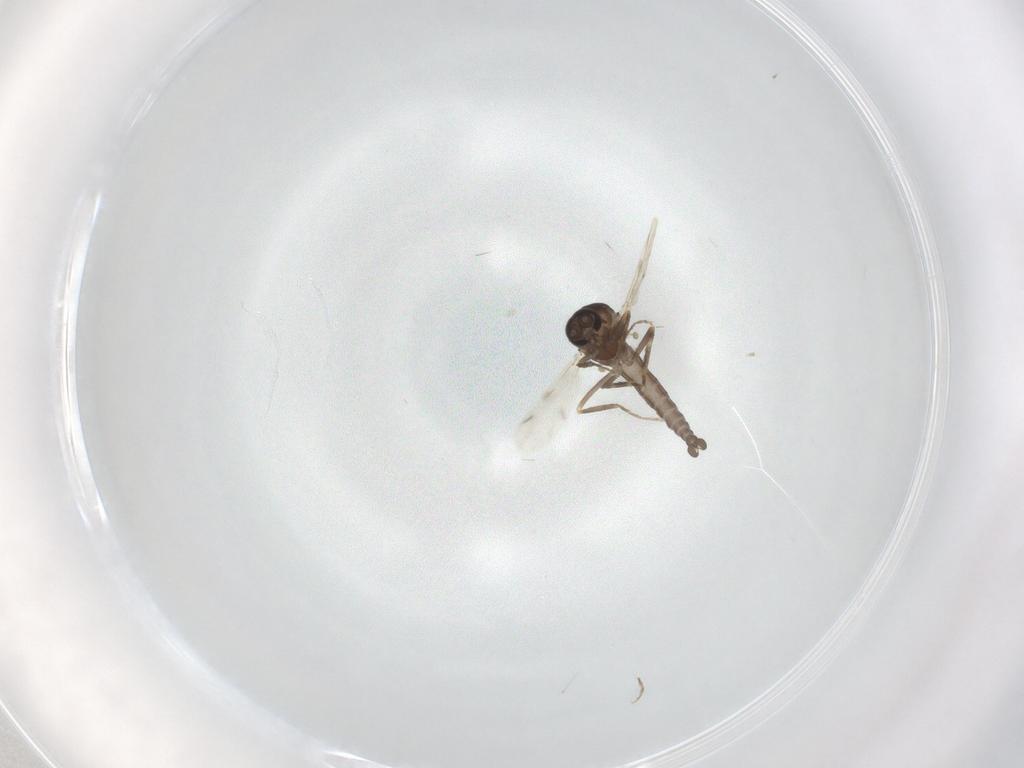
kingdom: Animalia
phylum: Arthropoda
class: Insecta
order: Diptera
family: Ceratopogonidae
